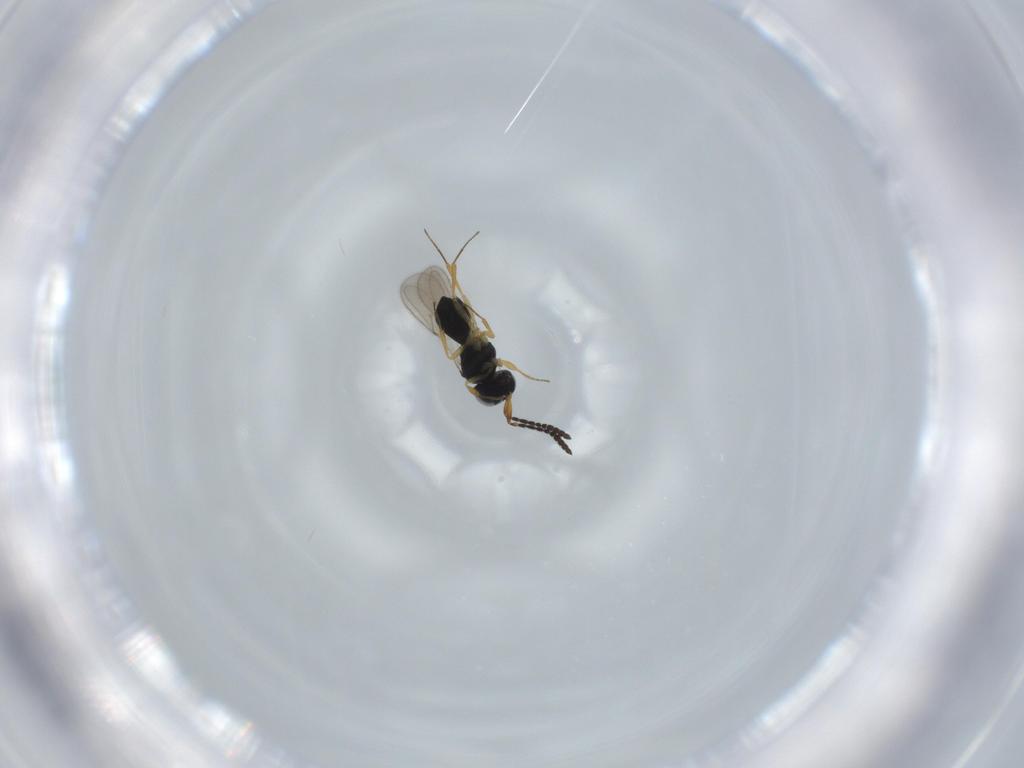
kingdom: Animalia
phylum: Arthropoda
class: Insecta
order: Hymenoptera
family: Scelionidae
